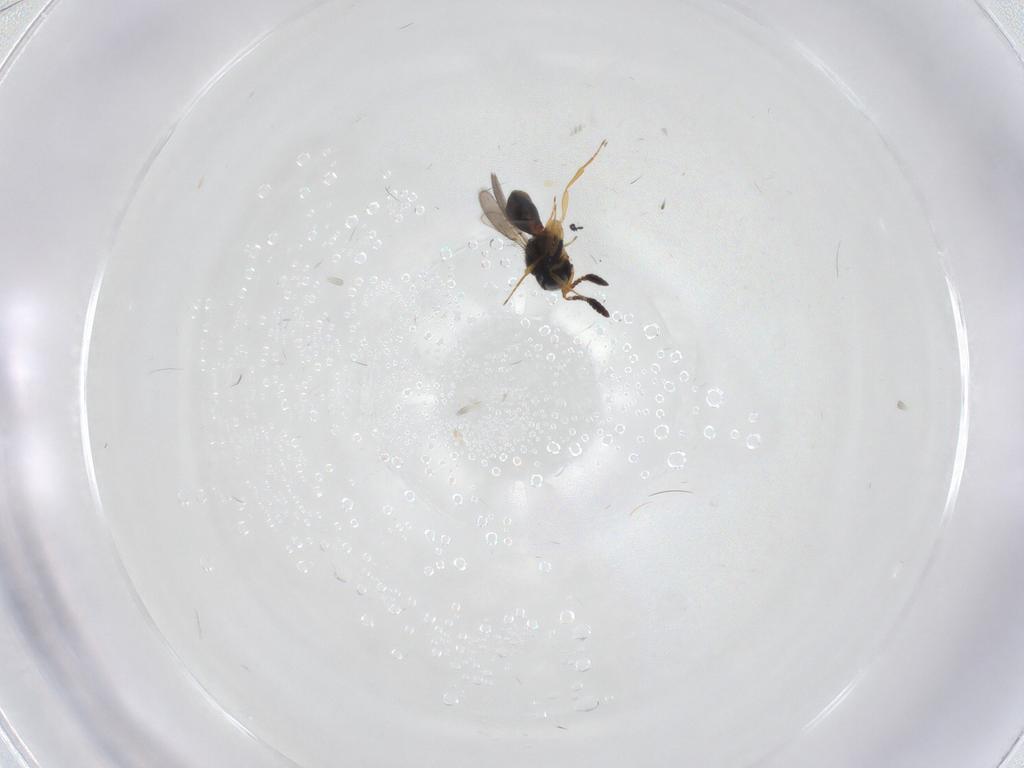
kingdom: Animalia
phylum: Arthropoda
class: Insecta
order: Hymenoptera
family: Scelionidae
